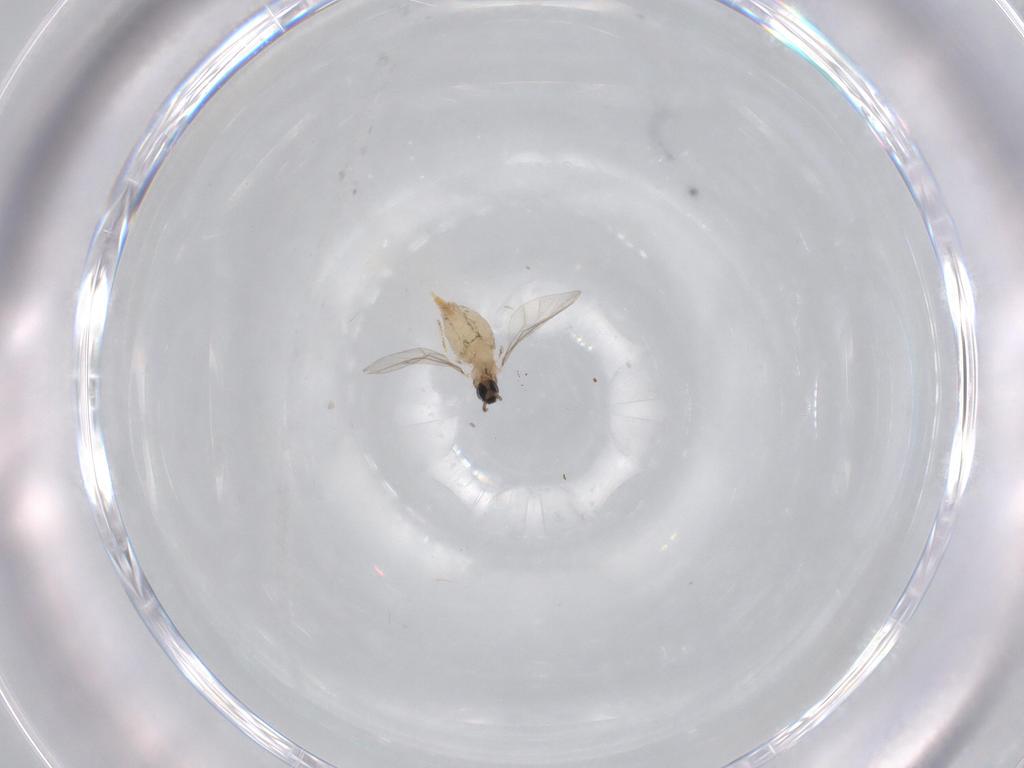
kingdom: Animalia
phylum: Arthropoda
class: Insecta
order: Diptera
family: Cecidomyiidae
